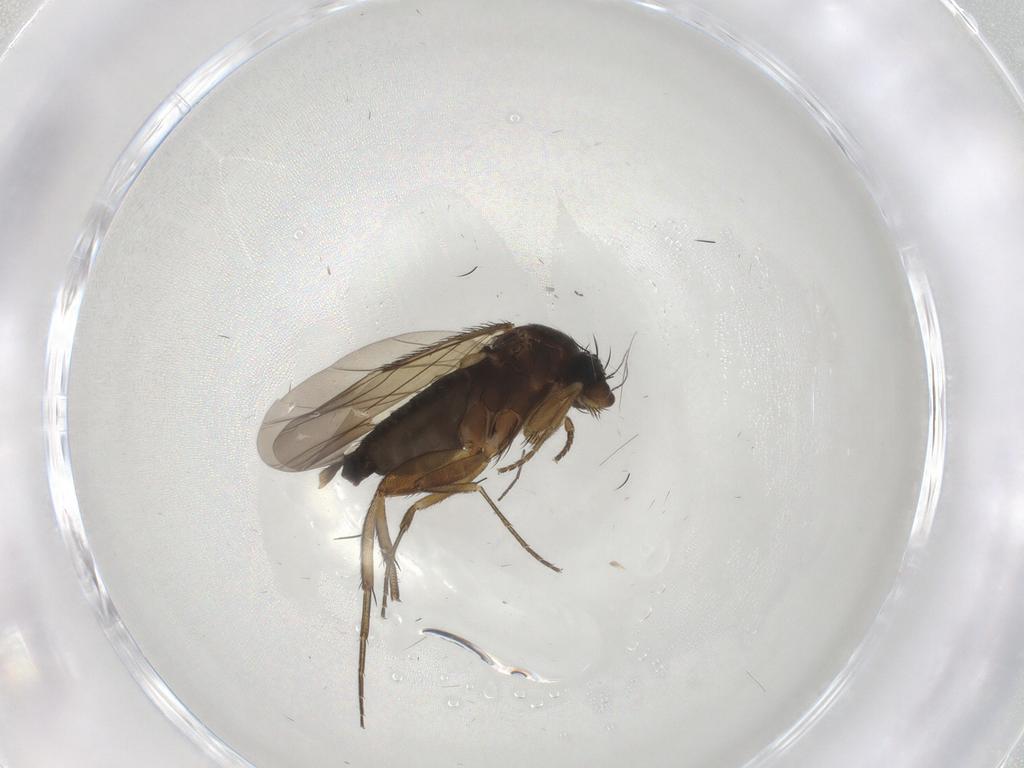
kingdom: Animalia
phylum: Arthropoda
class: Insecta
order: Diptera
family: Phoridae
